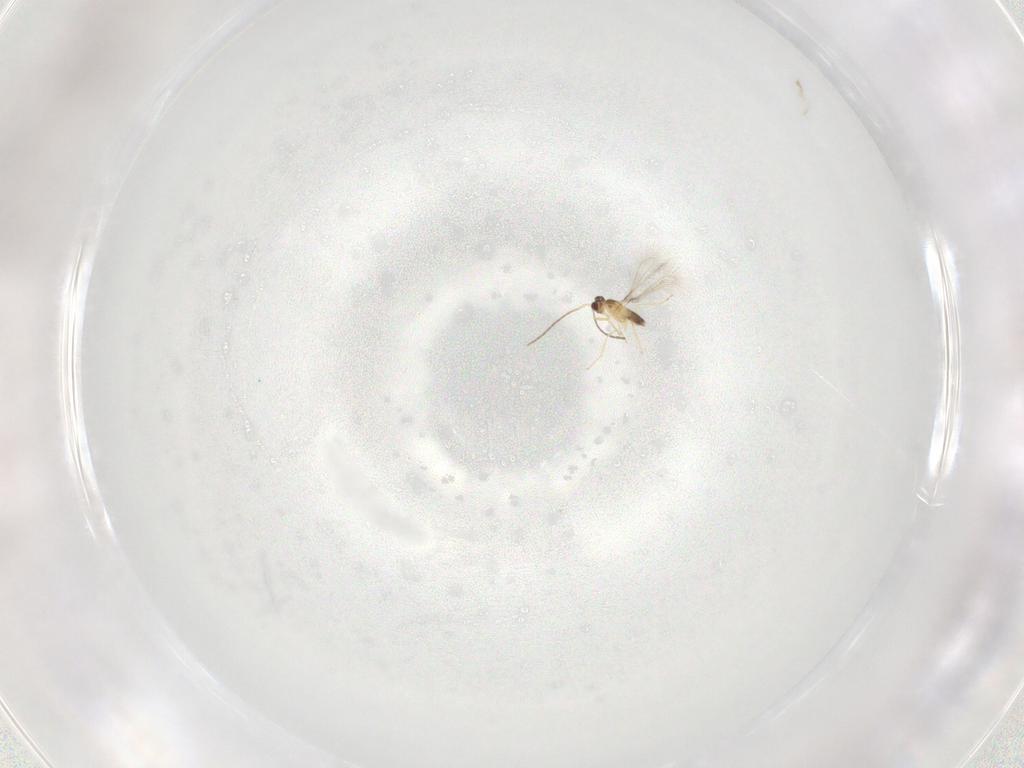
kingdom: Animalia
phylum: Arthropoda
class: Insecta
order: Hymenoptera
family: Mymaridae
